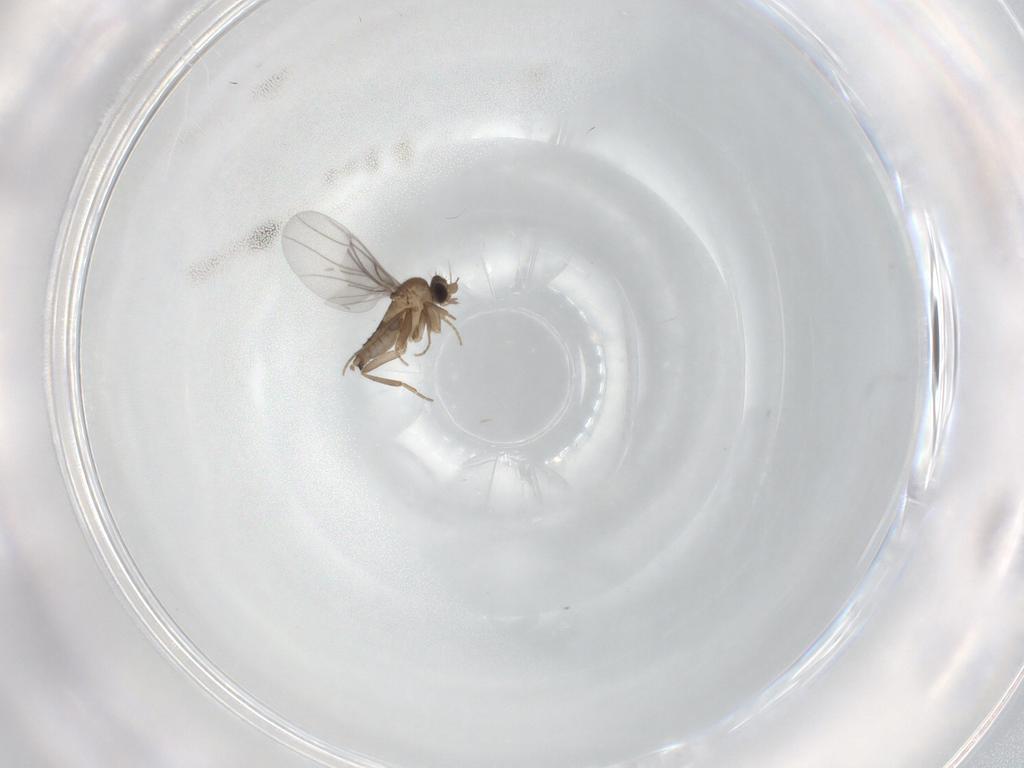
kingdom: Animalia
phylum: Arthropoda
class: Insecta
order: Diptera
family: Cecidomyiidae
